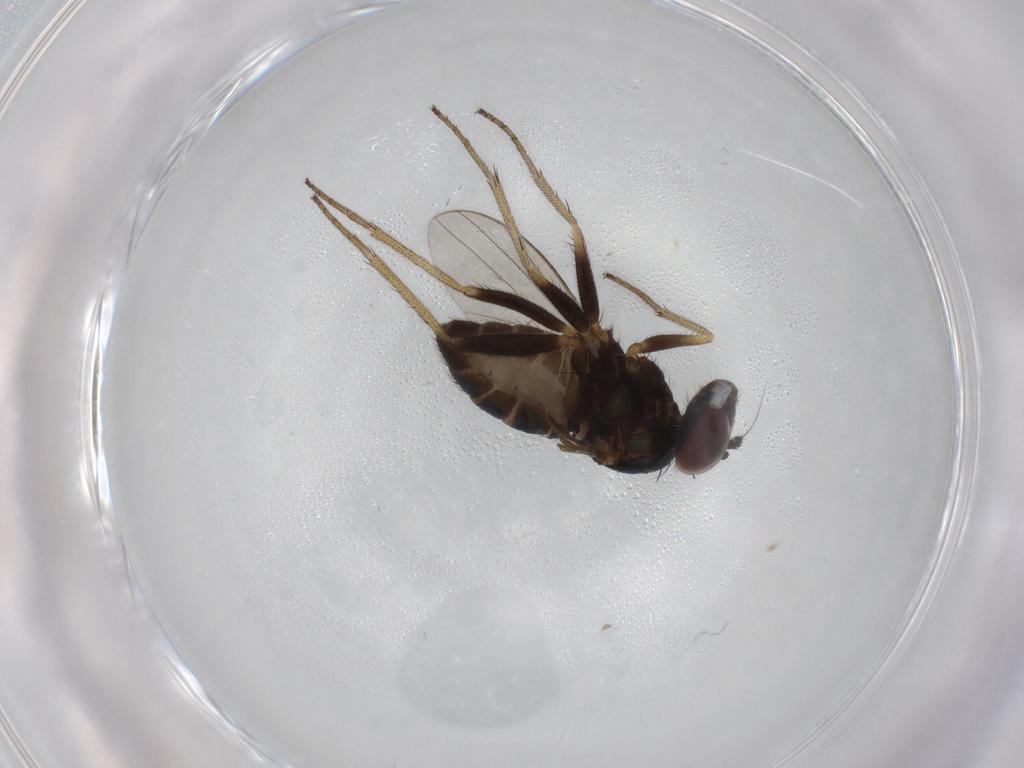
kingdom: Animalia
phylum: Arthropoda
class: Insecta
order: Diptera
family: Dolichopodidae
